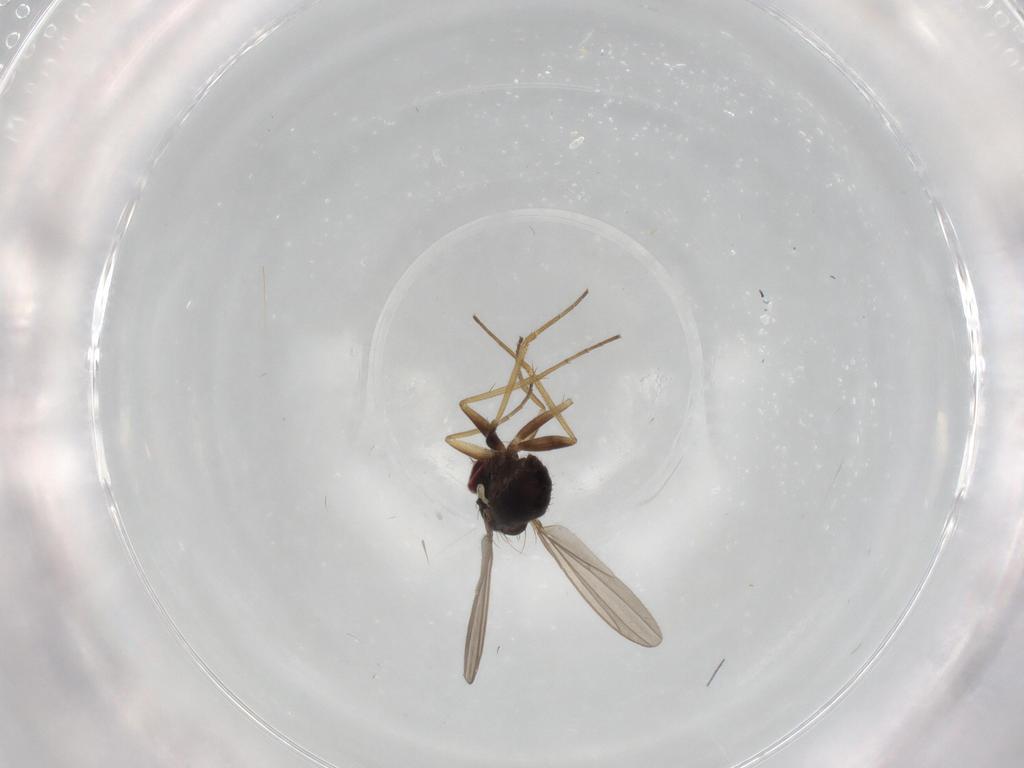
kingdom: Animalia
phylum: Arthropoda
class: Insecta
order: Diptera
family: Dolichopodidae
